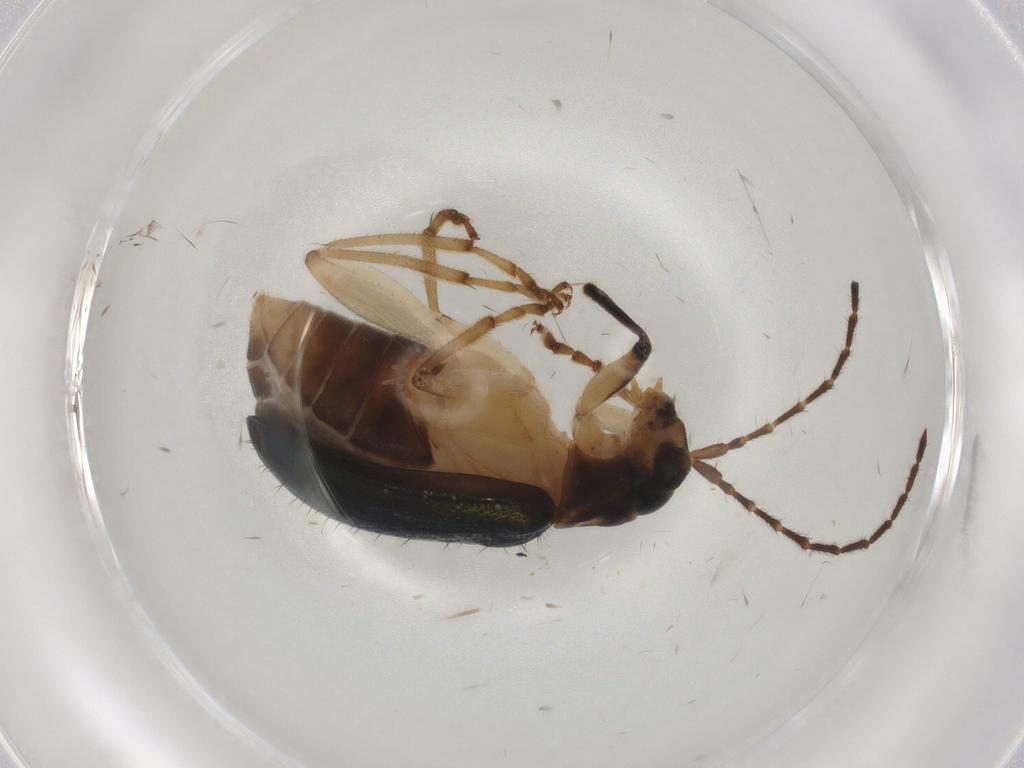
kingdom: Animalia
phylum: Arthropoda
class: Insecta
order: Coleoptera
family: Chrysomelidae
